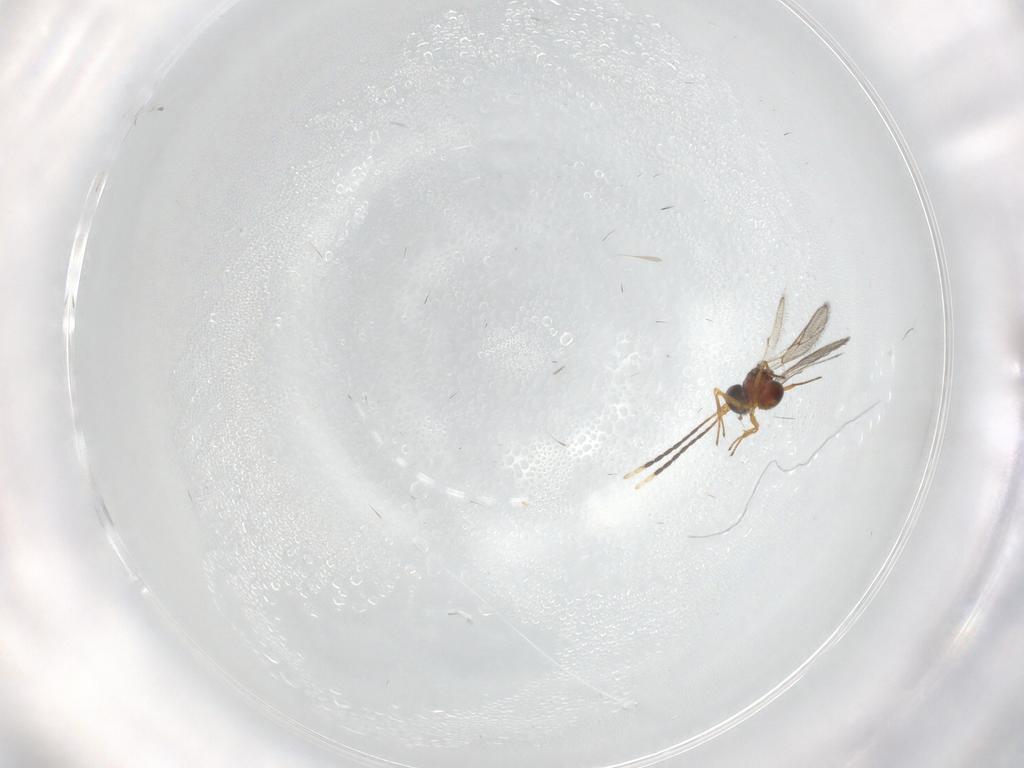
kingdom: Animalia
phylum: Arthropoda
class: Insecta
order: Hymenoptera
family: Figitidae
